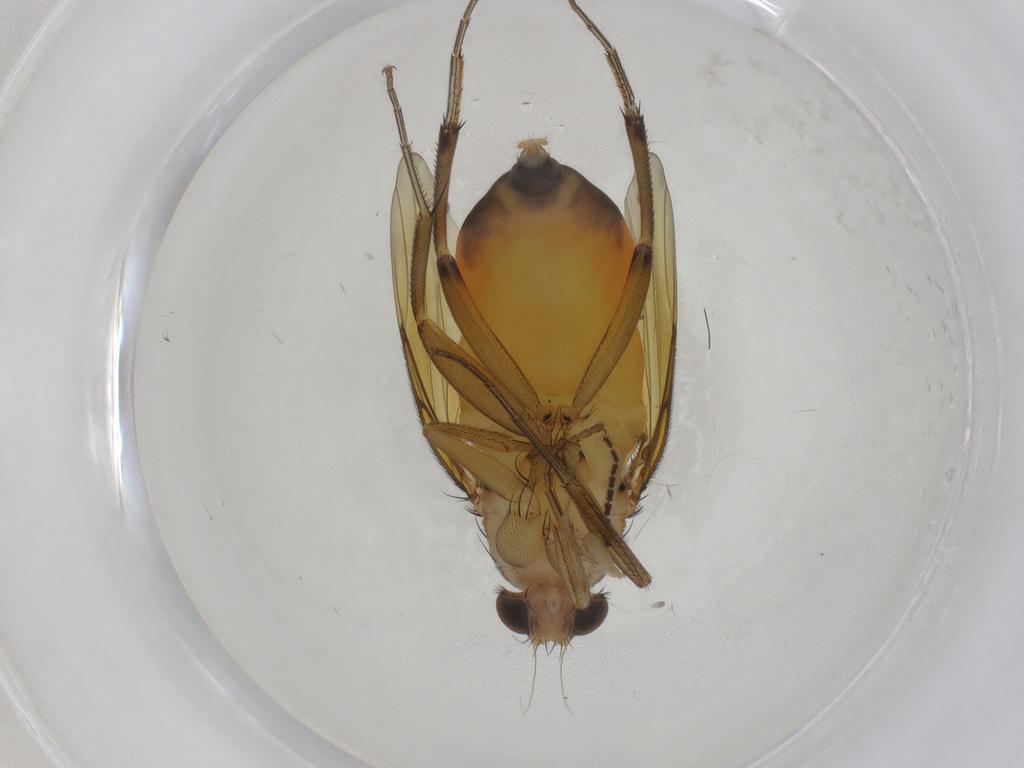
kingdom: Animalia
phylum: Arthropoda
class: Insecta
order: Diptera
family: Phoridae
